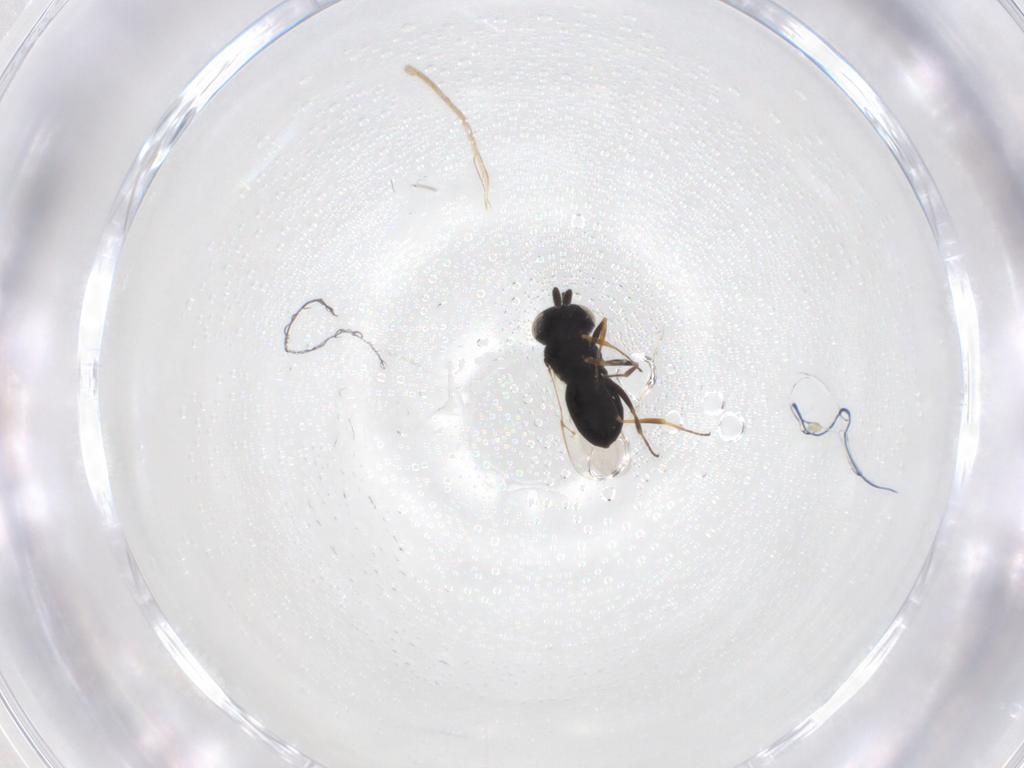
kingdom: Animalia
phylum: Arthropoda
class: Insecta
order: Hymenoptera
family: Scelionidae
